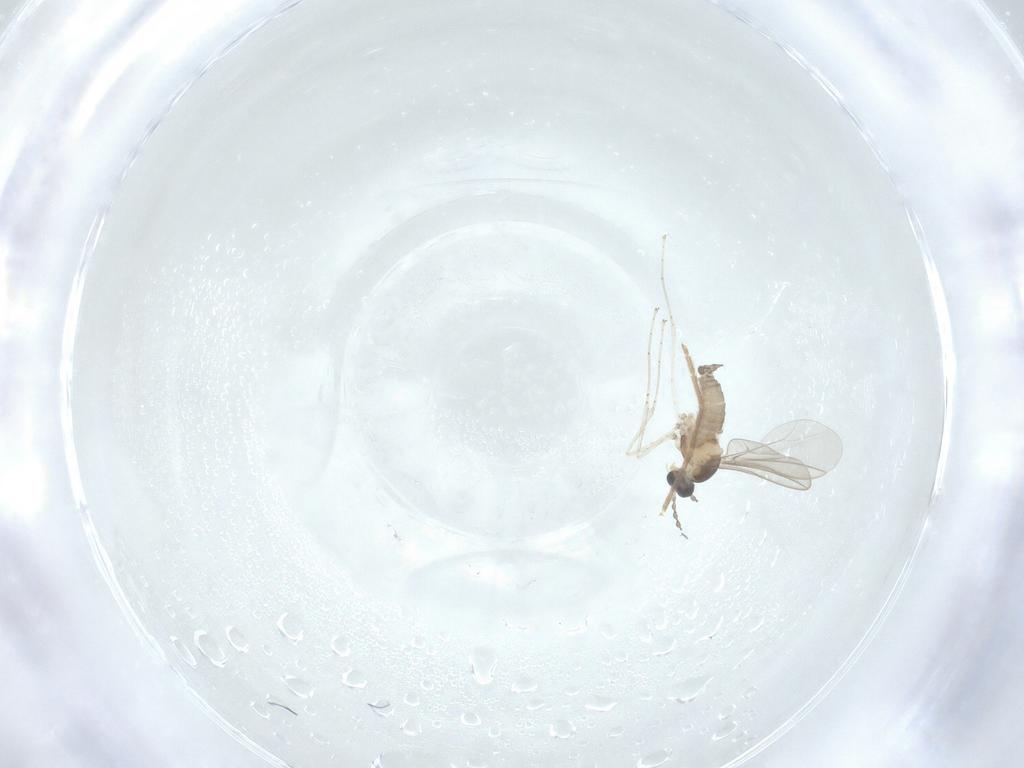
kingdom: Animalia
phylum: Arthropoda
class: Insecta
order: Diptera
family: Cecidomyiidae
